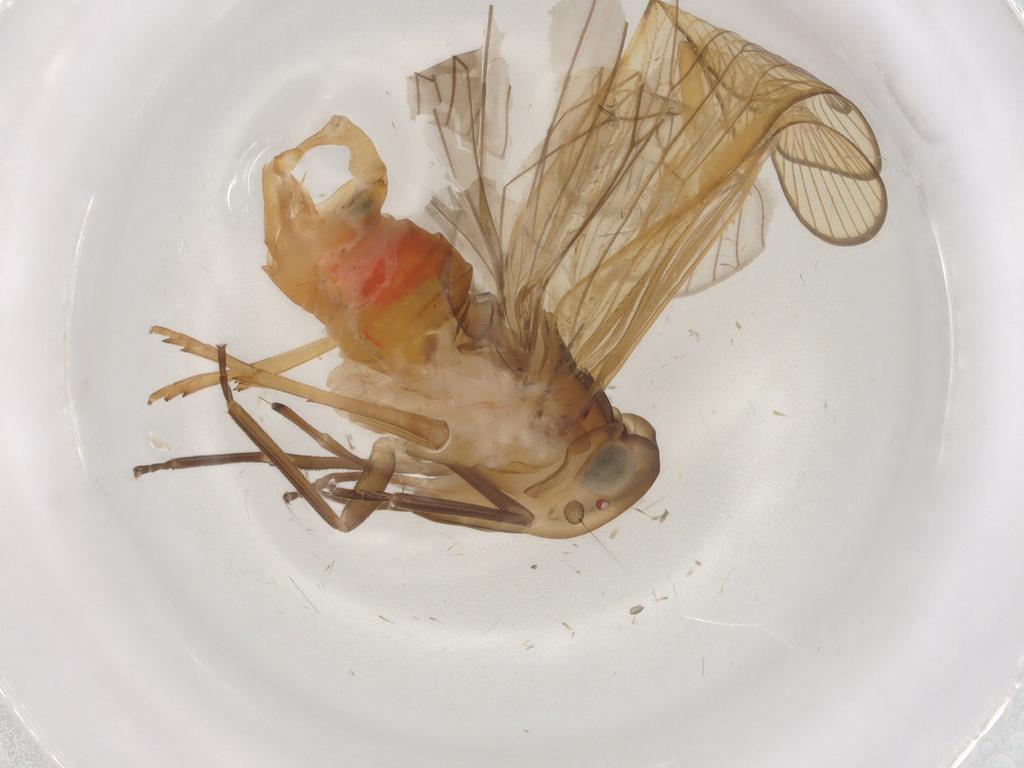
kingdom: Animalia
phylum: Arthropoda
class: Insecta
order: Hemiptera
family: Cixiidae
